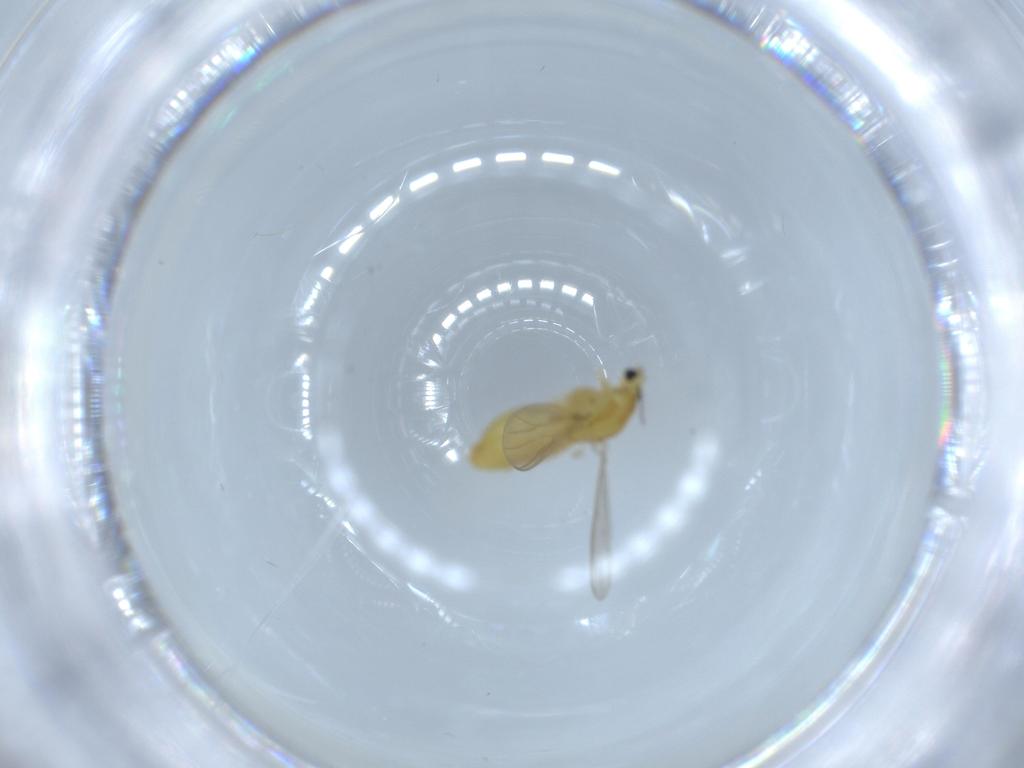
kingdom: Animalia
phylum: Arthropoda
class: Insecta
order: Diptera
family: Chironomidae
